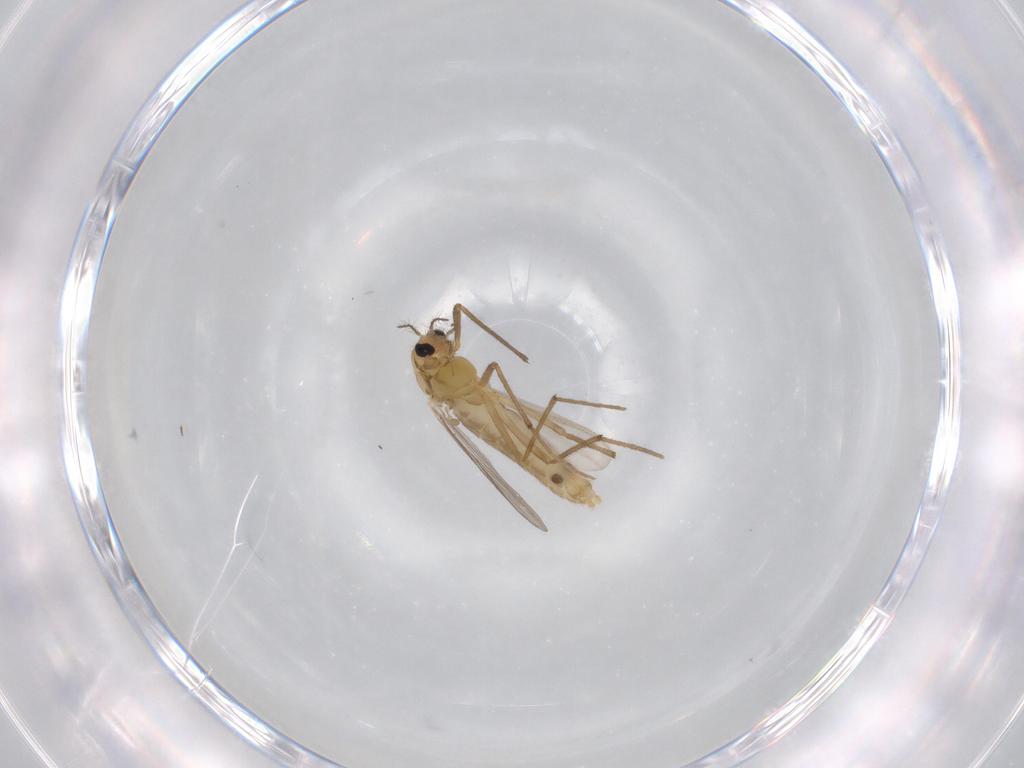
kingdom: Animalia
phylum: Arthropoda
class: Insecta
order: Diptera
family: Chironomidae
